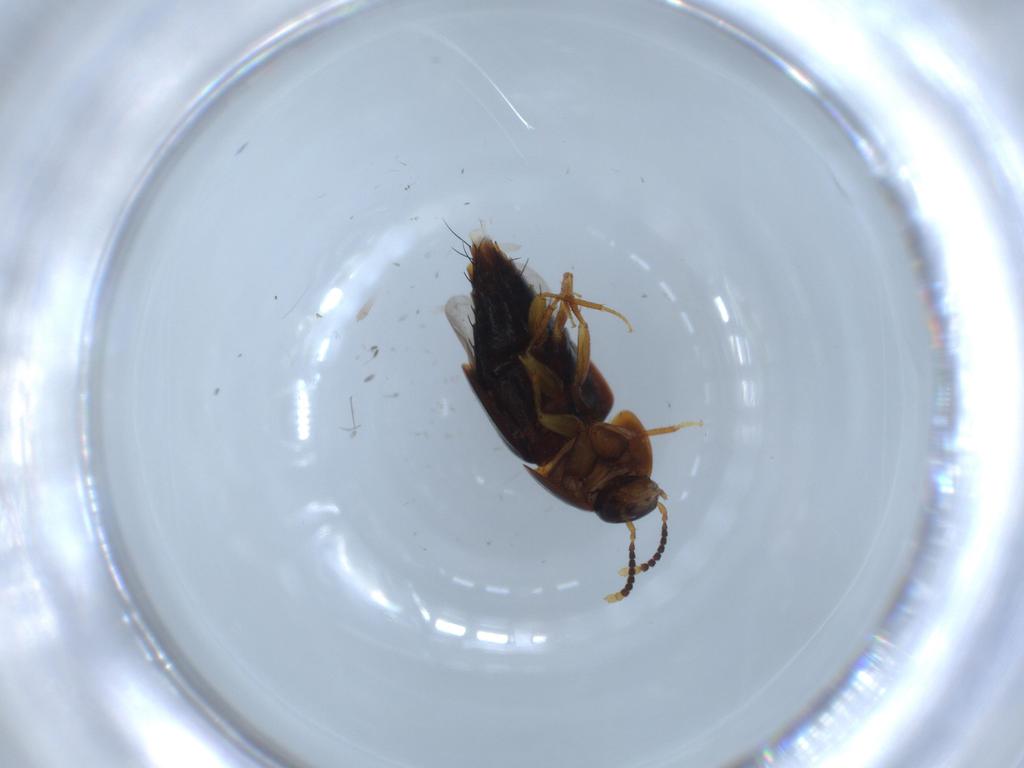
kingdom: Animalia
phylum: Arthropoda
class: Insecta
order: Coleoptera
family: Staphylinidae
